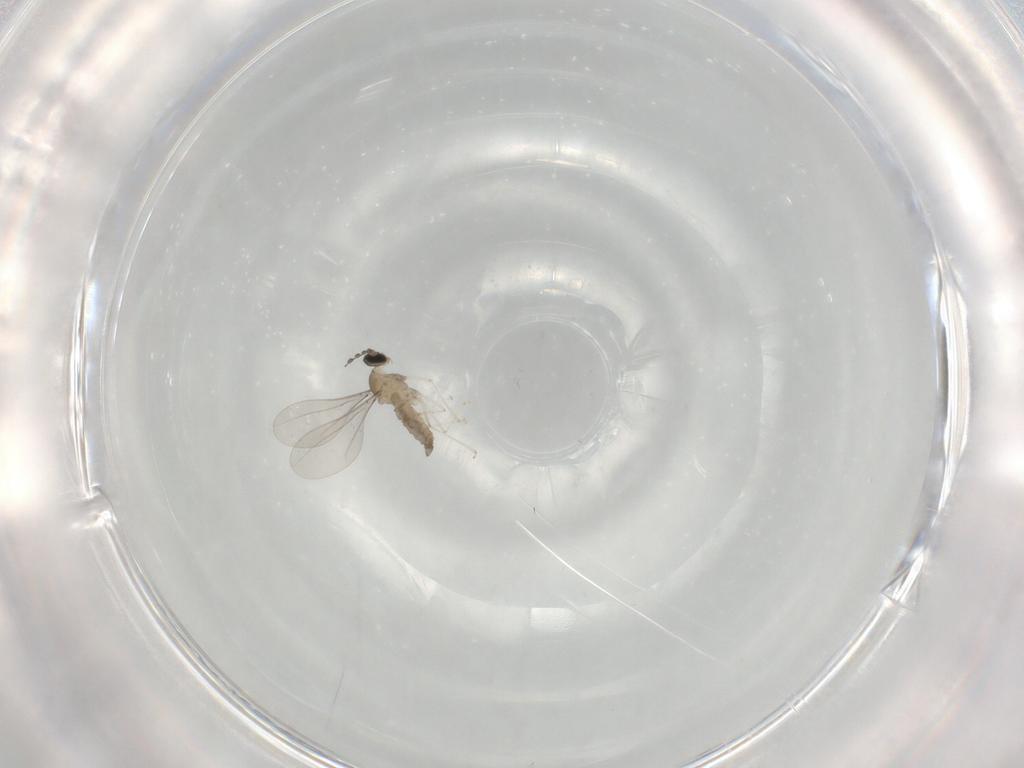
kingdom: Animalia
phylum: Arthropoda
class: Insecta
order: Diptera
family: Cecidomyiidae
